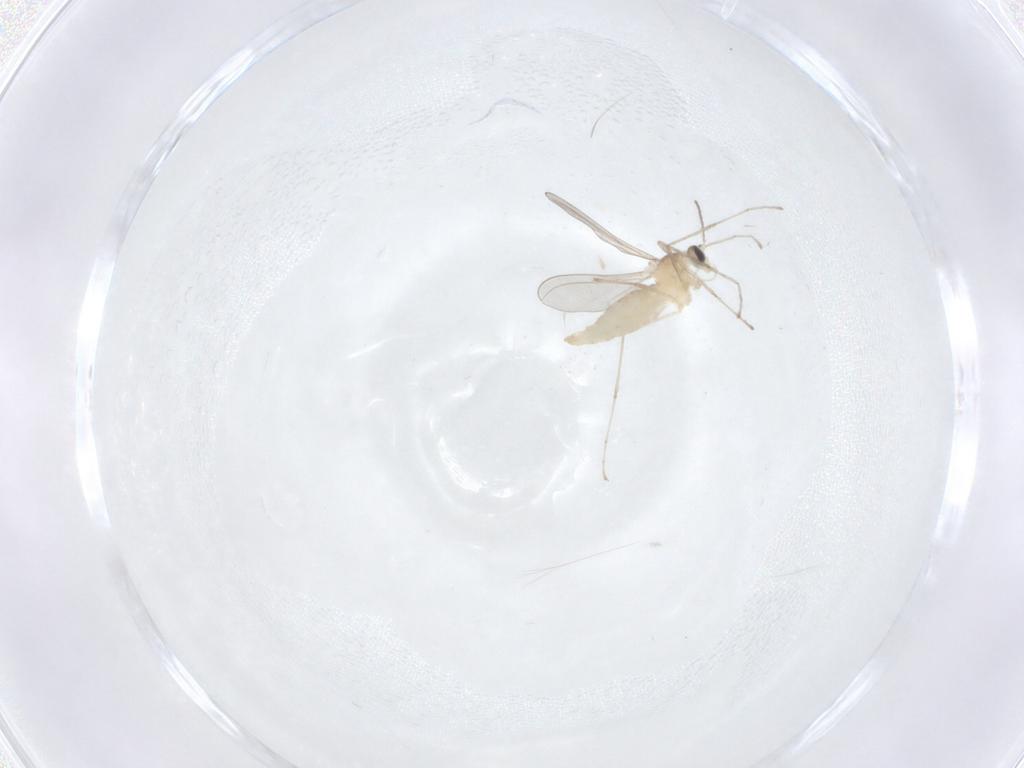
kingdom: Animalia
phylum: Arthropoda
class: Insecta
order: Diptera
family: Cecidomyiidae
